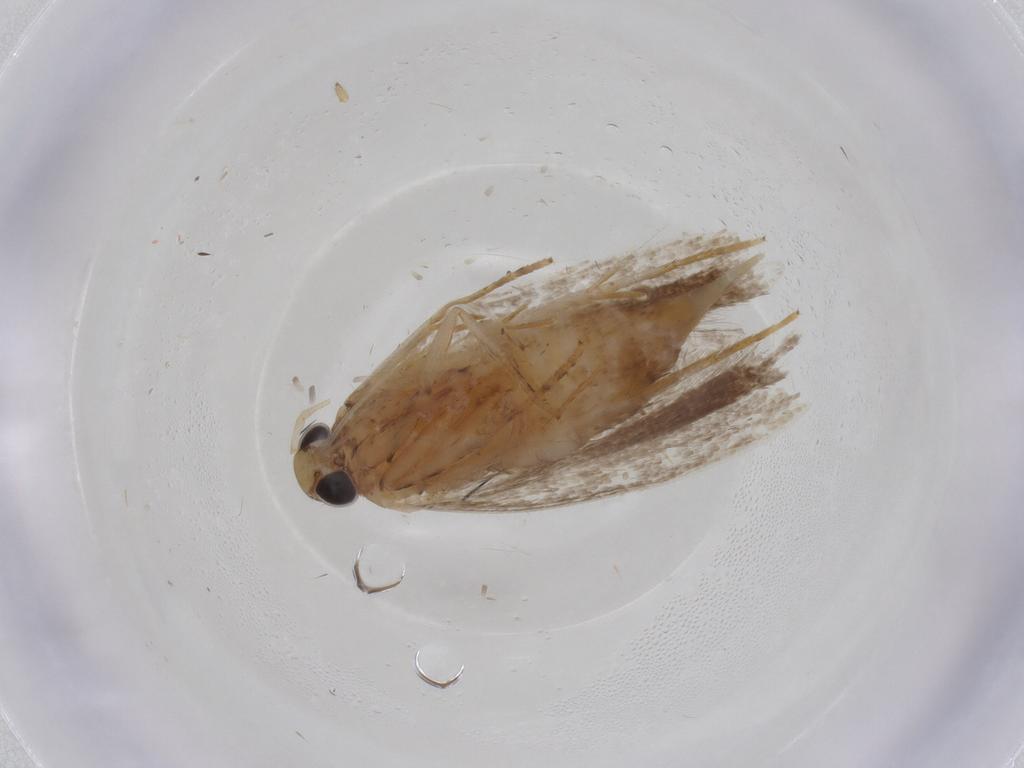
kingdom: Animalia
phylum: Arthropoda
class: Insecta
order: Lepidoptera
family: Gelechiidae
